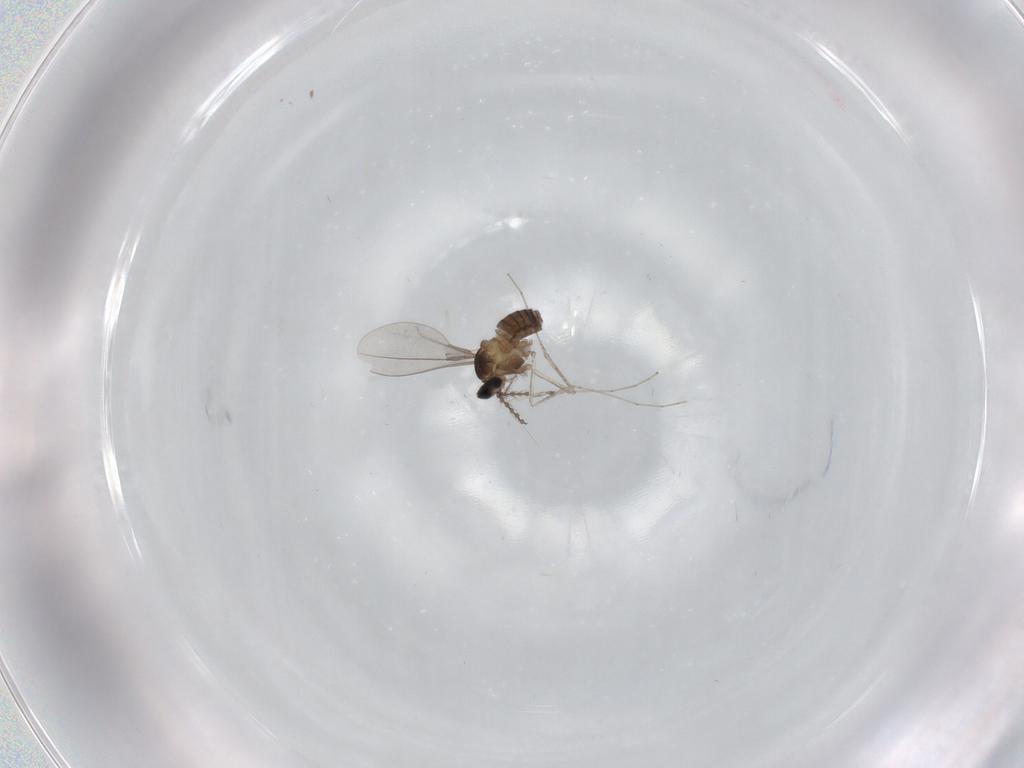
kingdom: Animalia
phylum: Arthropoda
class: Insecta
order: Diptera
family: Cecidomyiidae
